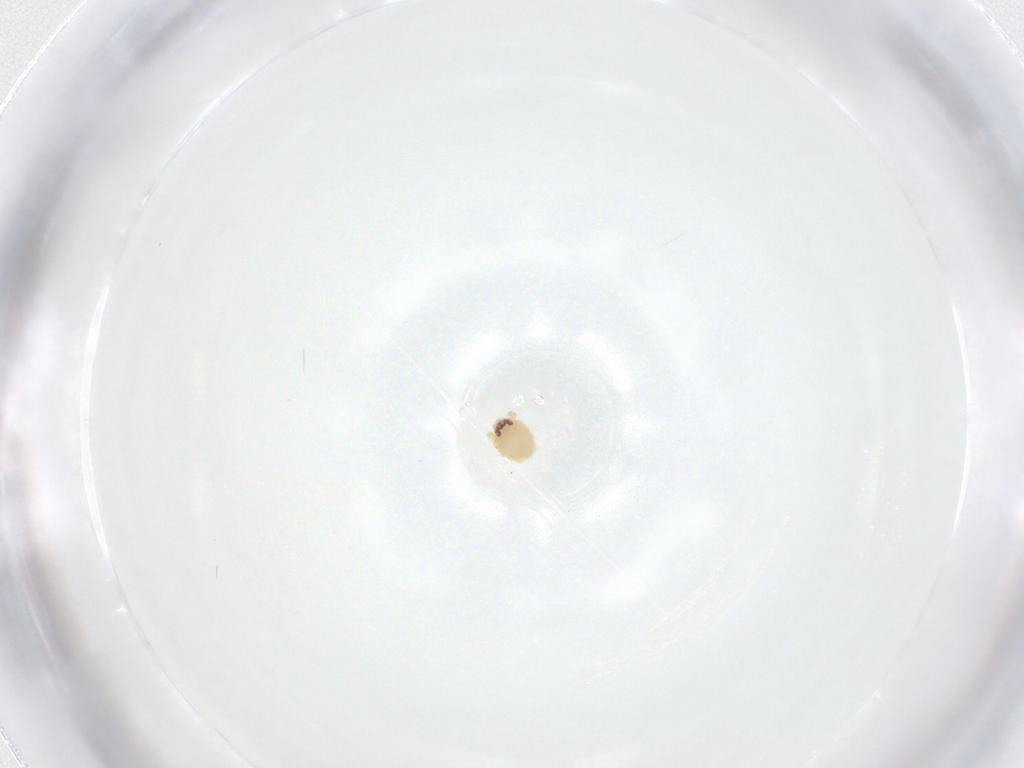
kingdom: Animalia
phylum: Arthropoda
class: Arachnida
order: Araneae
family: Oonopidae
